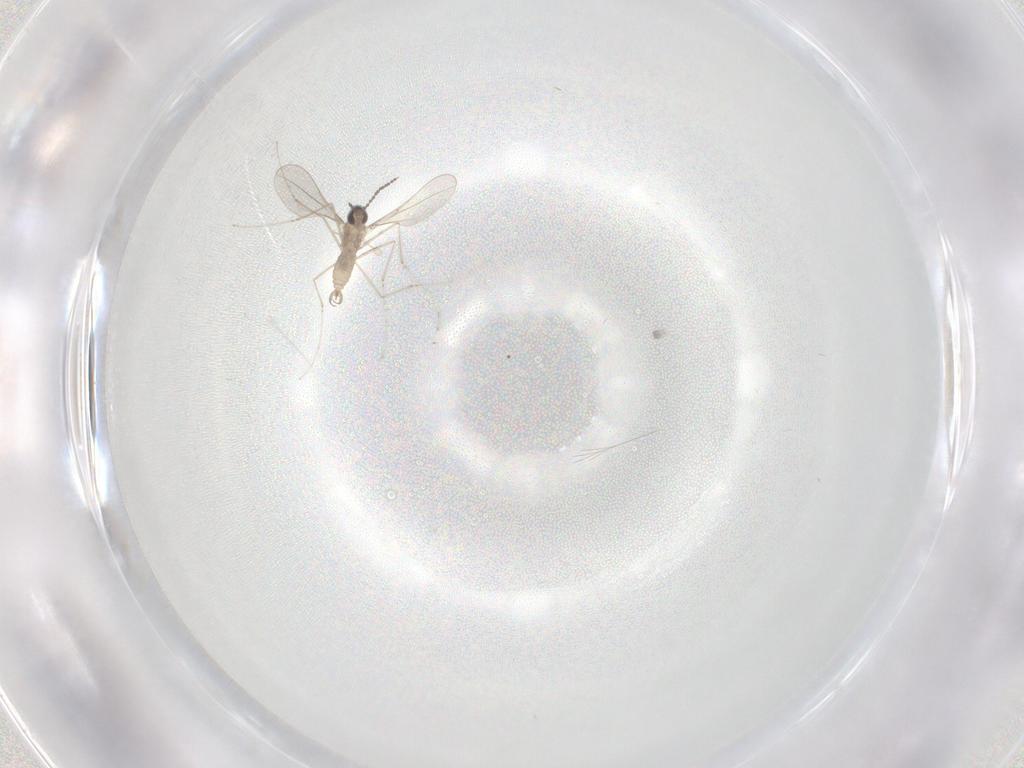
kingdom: Animalia
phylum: Arthropoda
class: Insecta
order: Diptera
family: Cecidomyiidae
